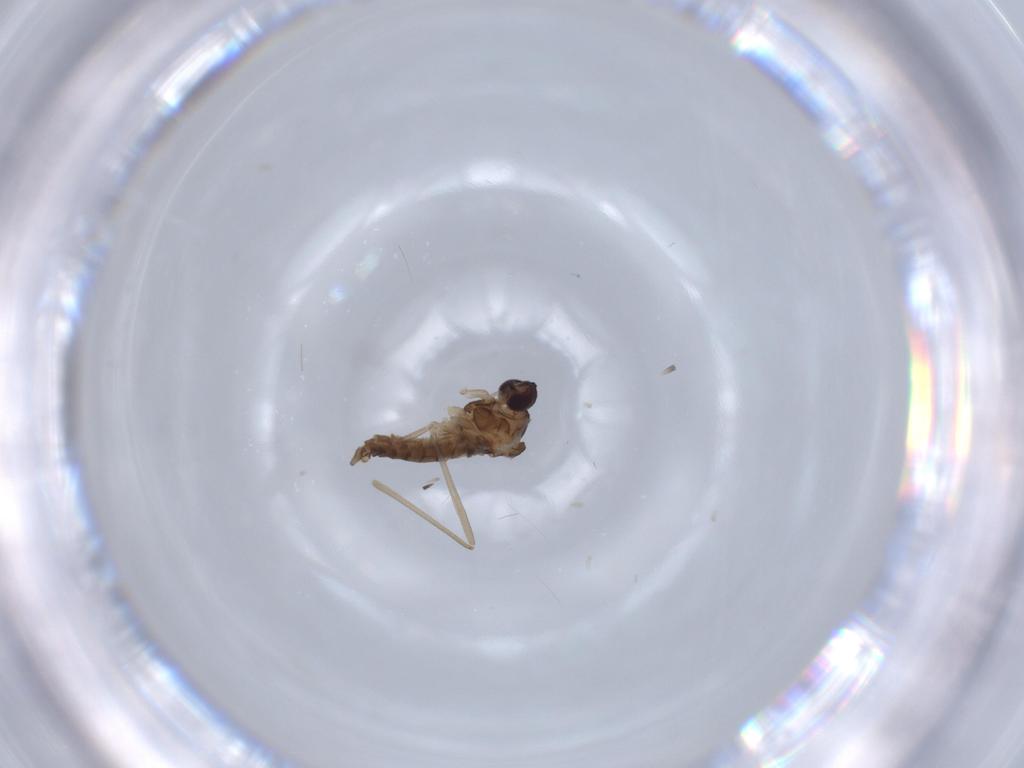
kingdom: Animalia
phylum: Arthropoda
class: Insecta
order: Diptera
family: Cecidomyiidae
